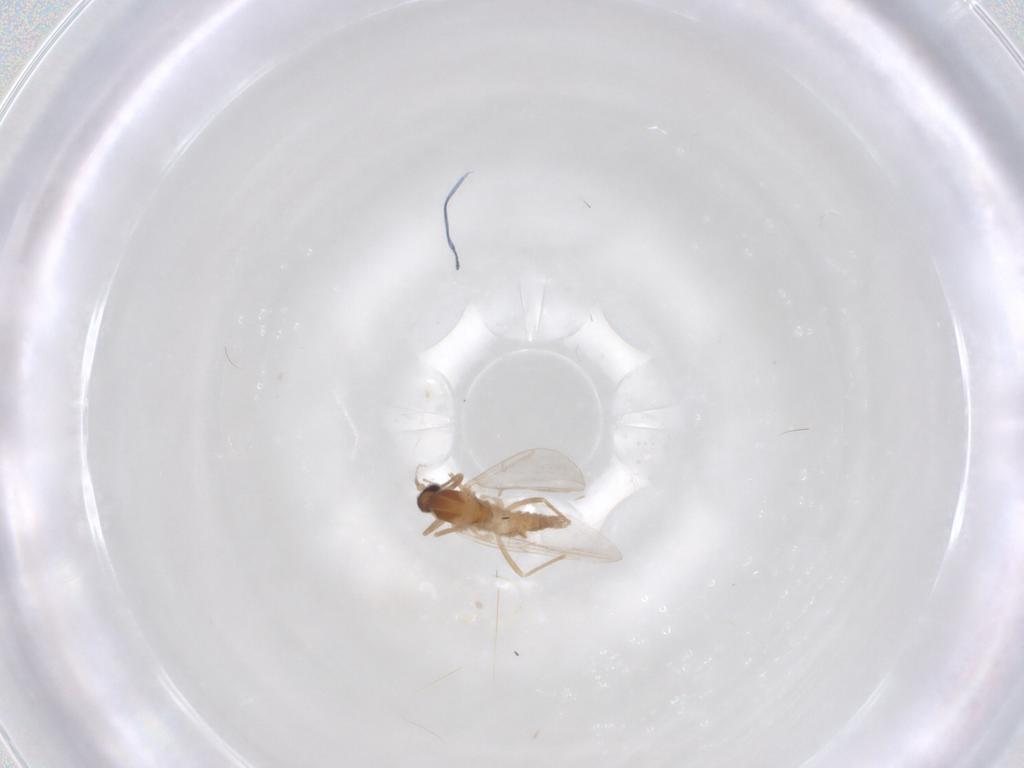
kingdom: Animalia
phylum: Arthropoda
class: Insecta
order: Diptera
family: Cecidomyiidae
